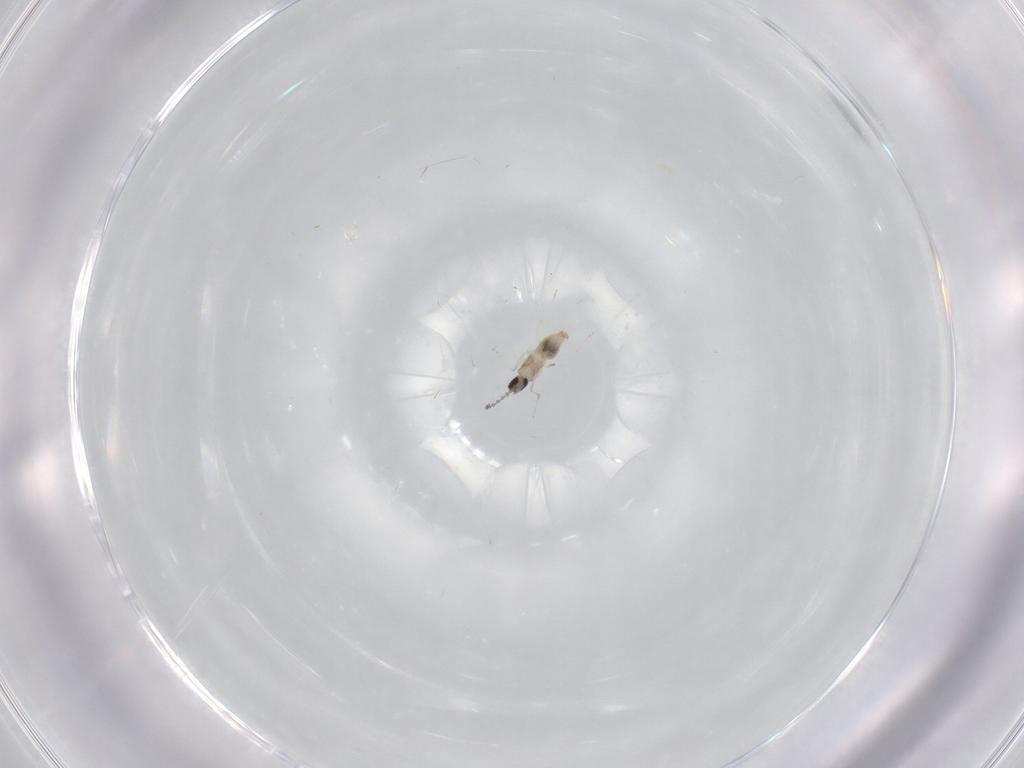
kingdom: Animalia
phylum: Arthropoda
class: Insecta
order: Diptera
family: Cecidomyiidae
